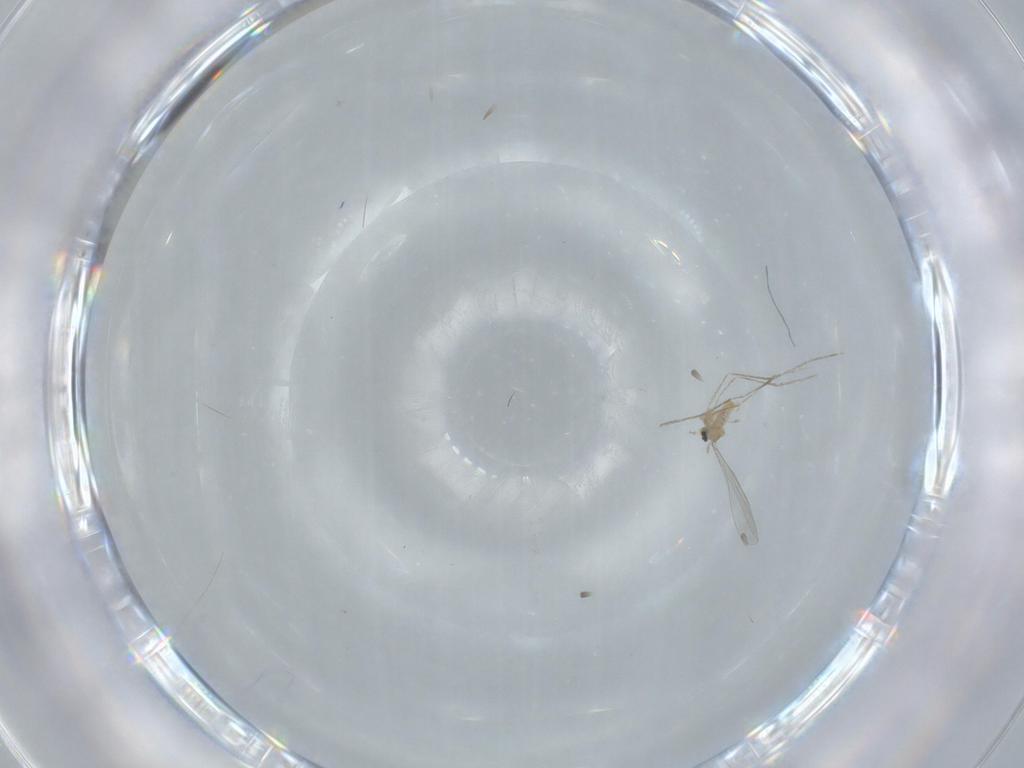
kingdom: Animalia
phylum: Arthropoda
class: Insecta
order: Diptera
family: Cecidomyiidae
